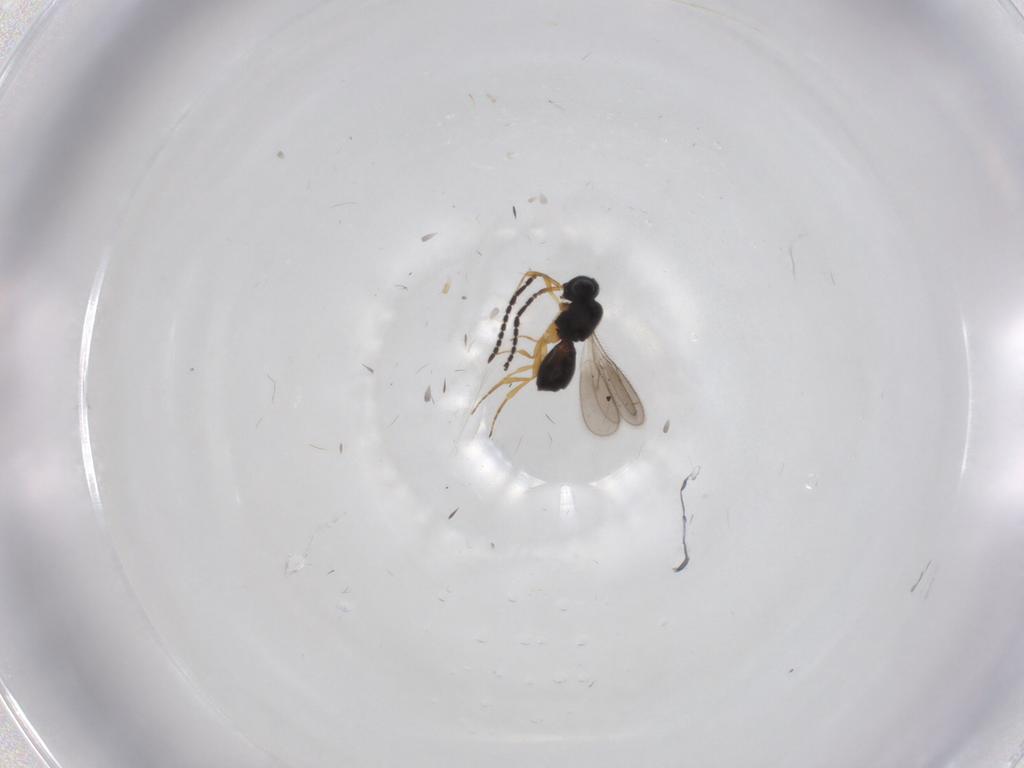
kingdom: Animalia
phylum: Arthropoda
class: Insecta
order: Hymenoptera
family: Scelionidae
